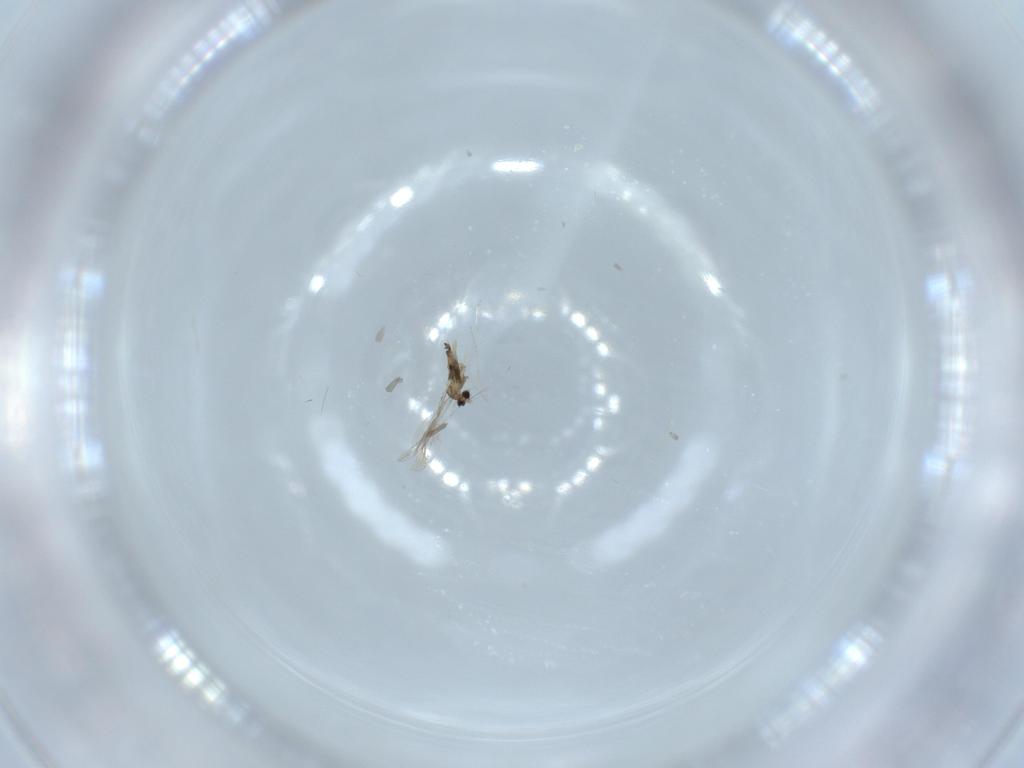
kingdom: Animalia
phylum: Arthropoda
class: Insecta
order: Diptera
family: Cecidomyiidae
